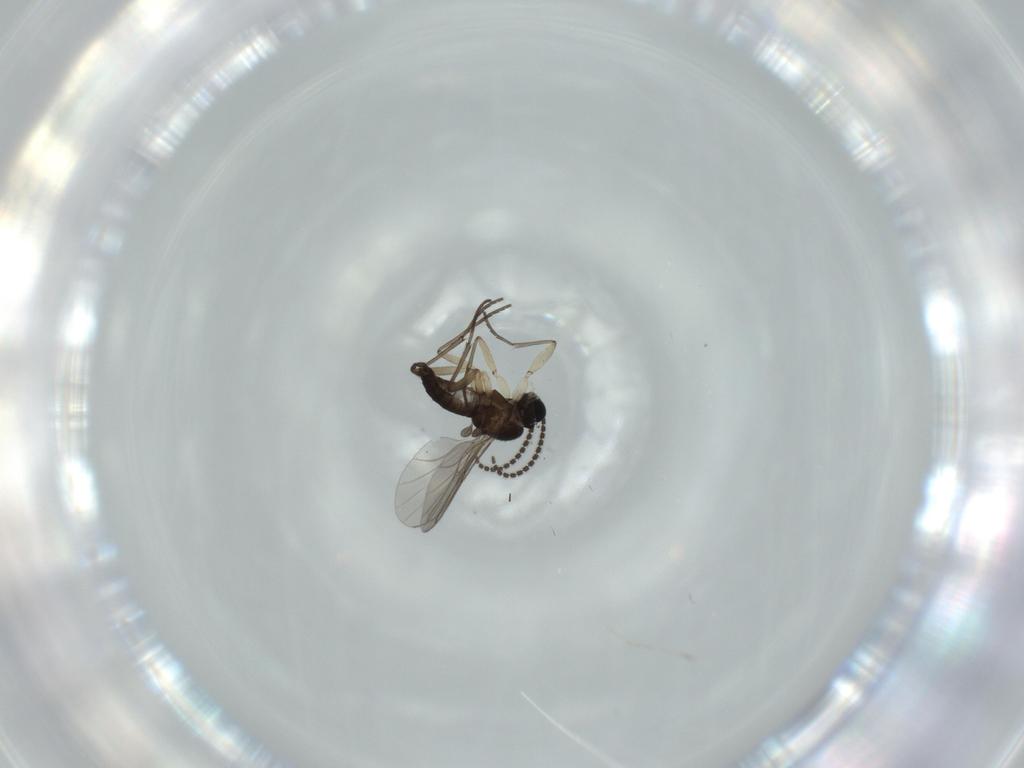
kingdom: Animalia
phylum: Arthropoda
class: Insecta
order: Diptera
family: Sciaridae
